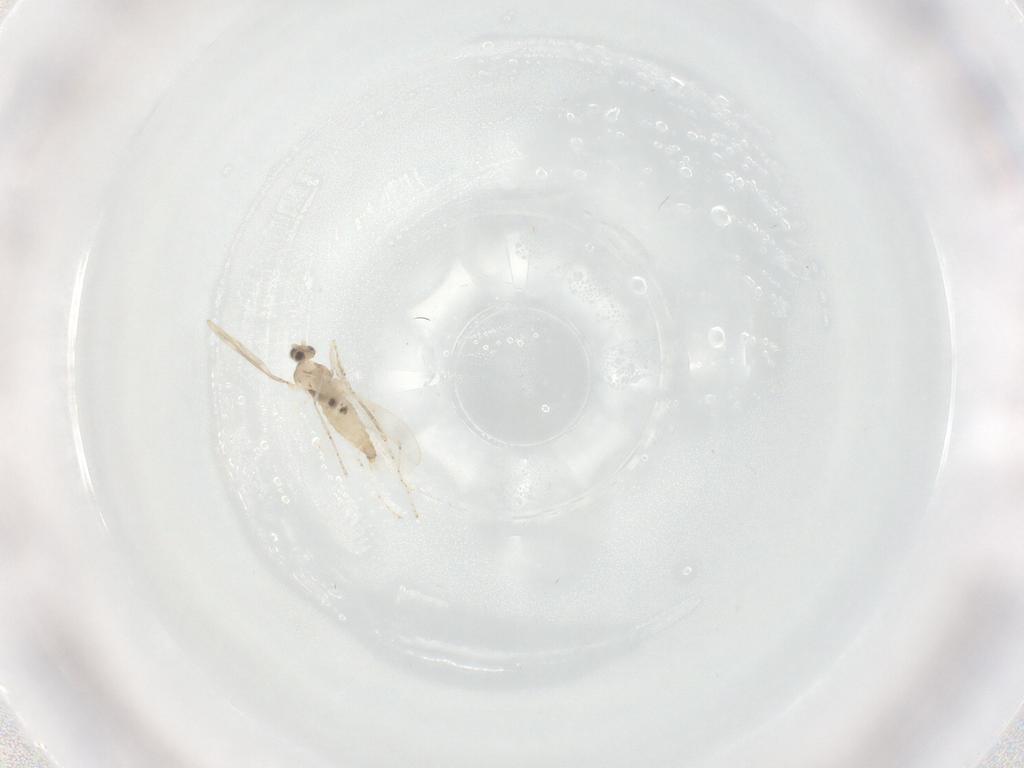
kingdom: Animalia
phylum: Arthropoda
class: Insecta
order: Diptera
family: Cecidomyiidae
